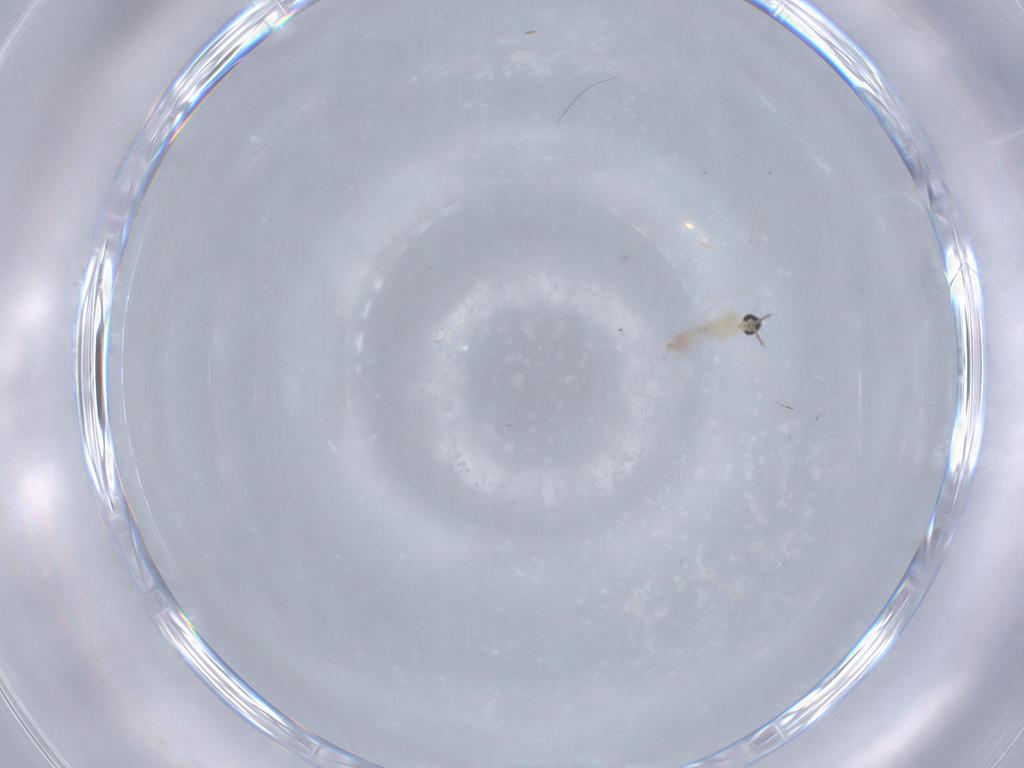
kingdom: Animalia
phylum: Arthropoda
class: Insecta
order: Diptera
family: Cecidomyiidae
